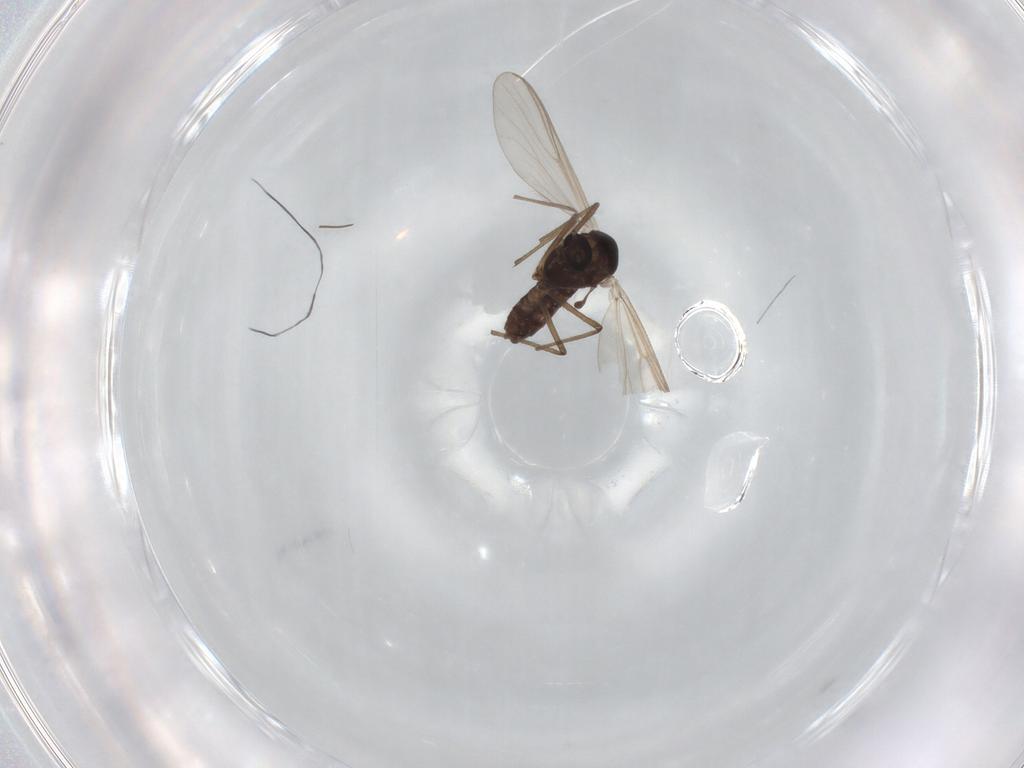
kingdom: Animalia
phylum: Arthropoda
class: Insecta
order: Diptera
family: Chironomidae
